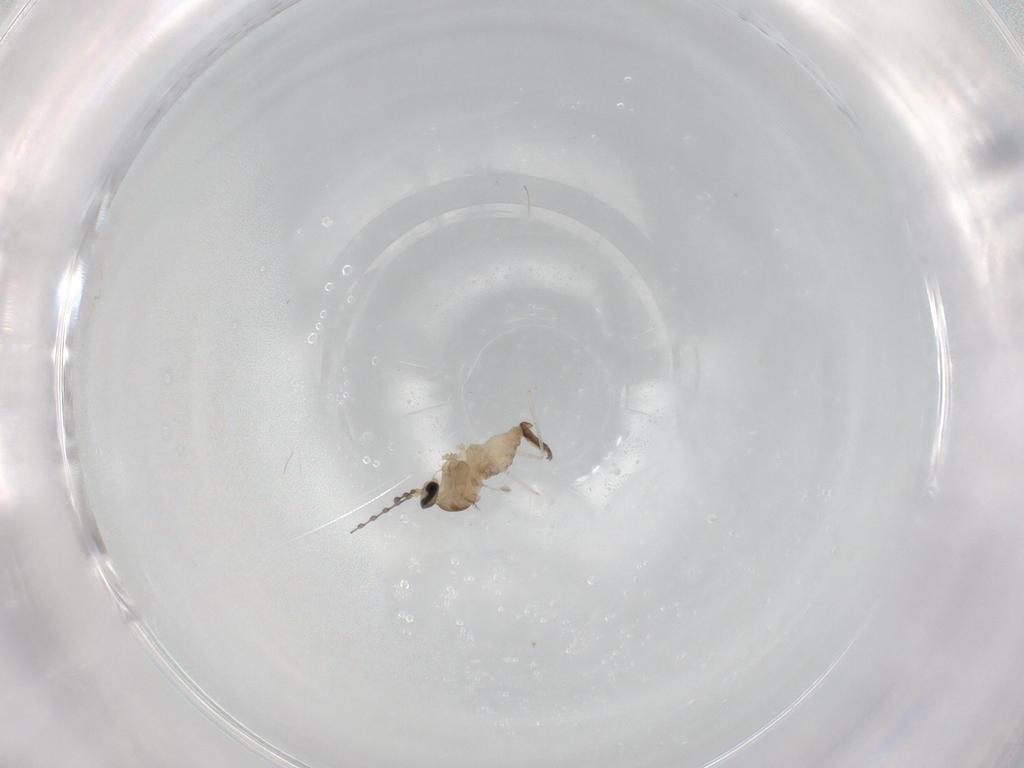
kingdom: Animalia
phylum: Arthropoda
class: Insecta
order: Diptera
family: Cecidomyiidae
